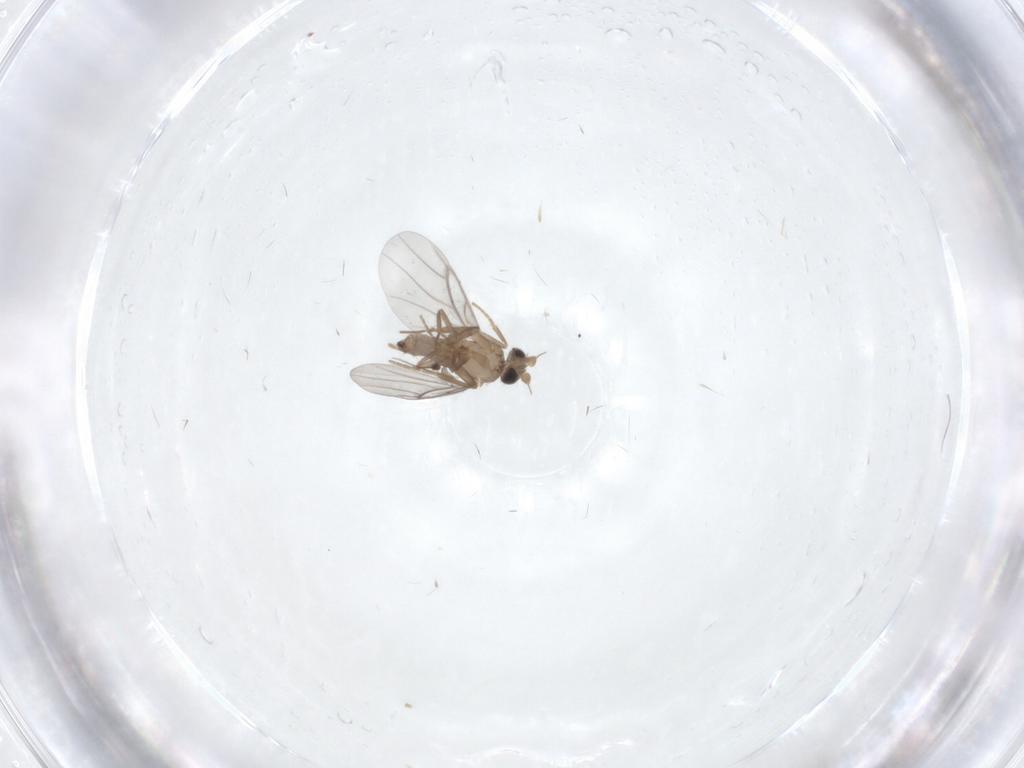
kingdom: Animalia
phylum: Arthropoda
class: Insecta
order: Diptera
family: Dolichopodidae
